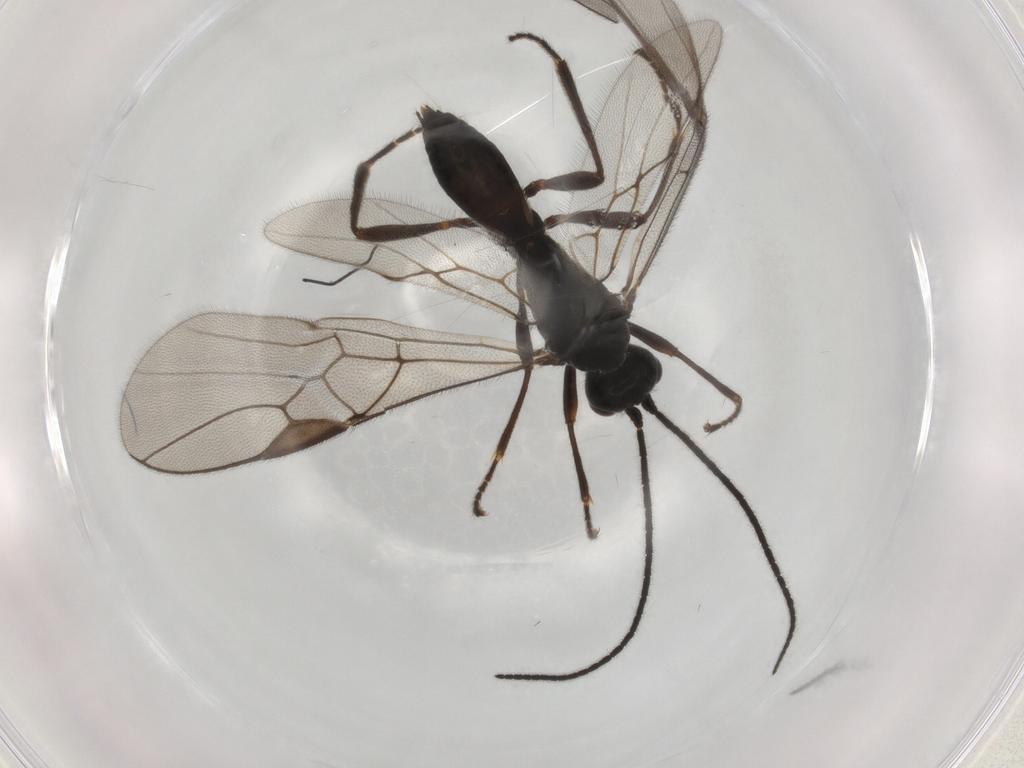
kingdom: Animalia
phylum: Arthropoda
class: Insecta
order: Hymenoptera
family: Braconidae
